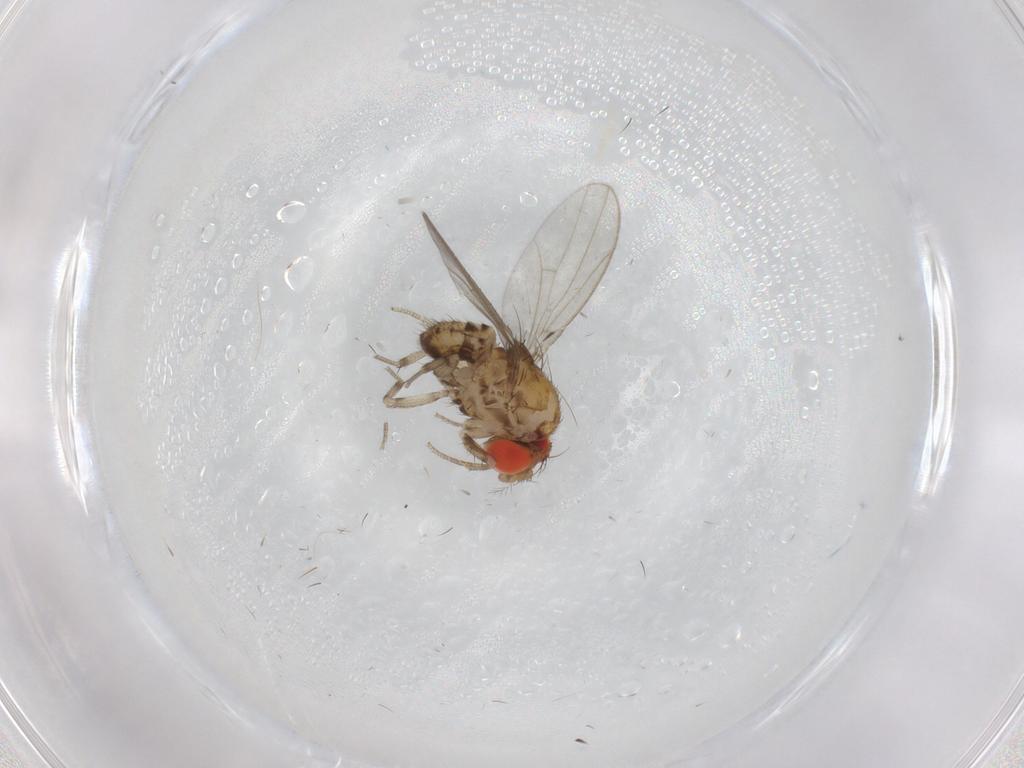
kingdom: Animalia
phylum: Arthropoda
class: Insecta
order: Diptera
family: Drosophilidae
